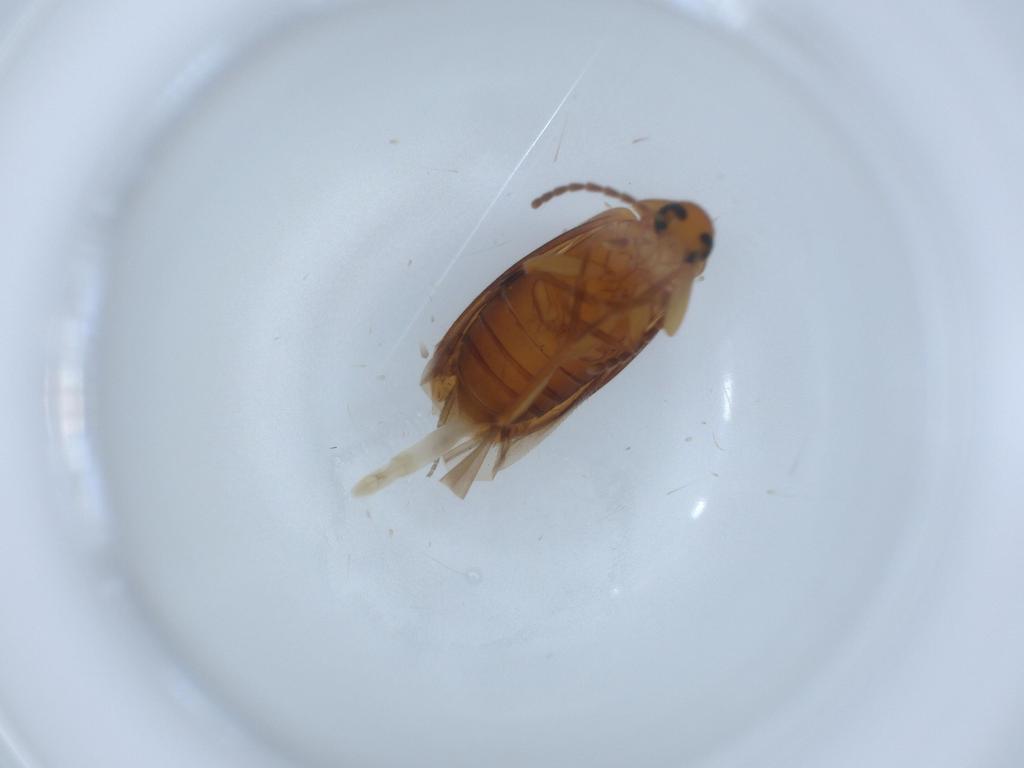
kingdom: Animalia
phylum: Arthropoda
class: Insecta
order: Coleoptera
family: Scraptiidae
